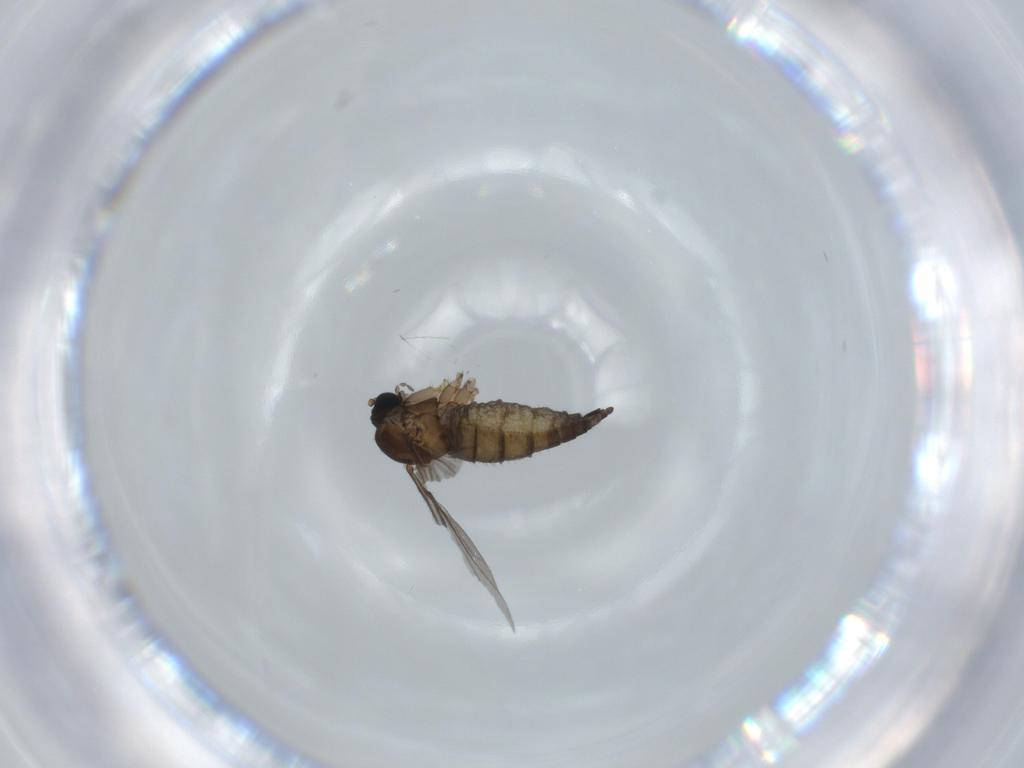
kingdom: Animalia
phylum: Arthropoda
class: Insecta
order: Diptera
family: Sciaridae
